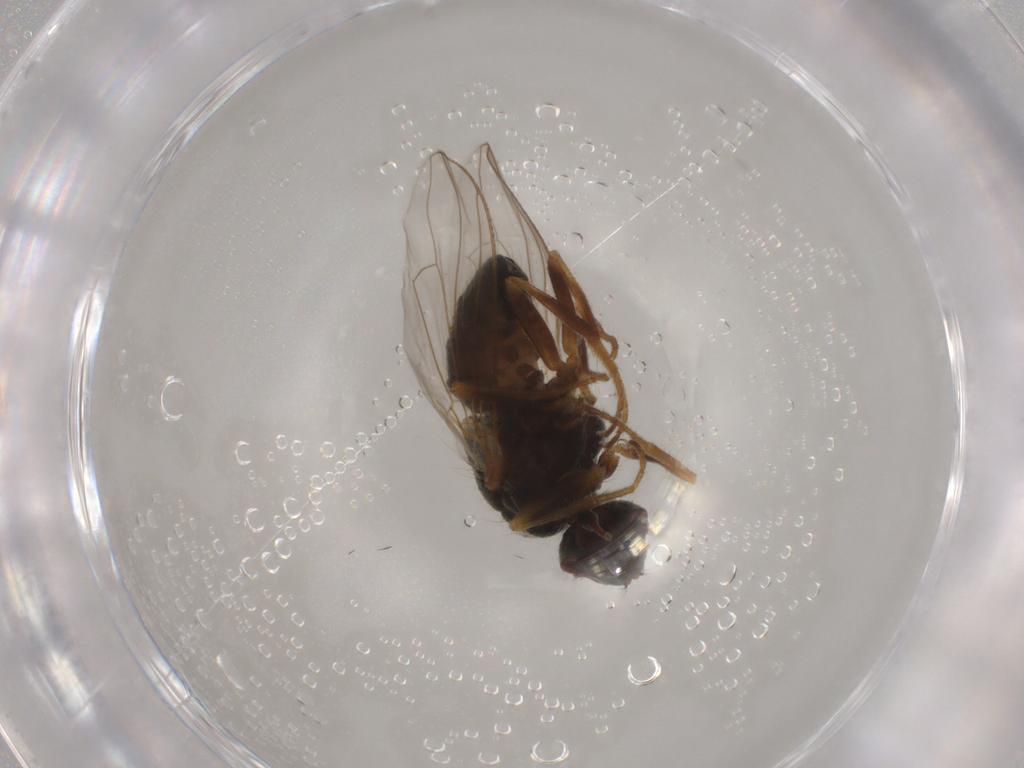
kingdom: Animalia
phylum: Arthropoda
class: Insecta
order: Diptera
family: Muscidae
